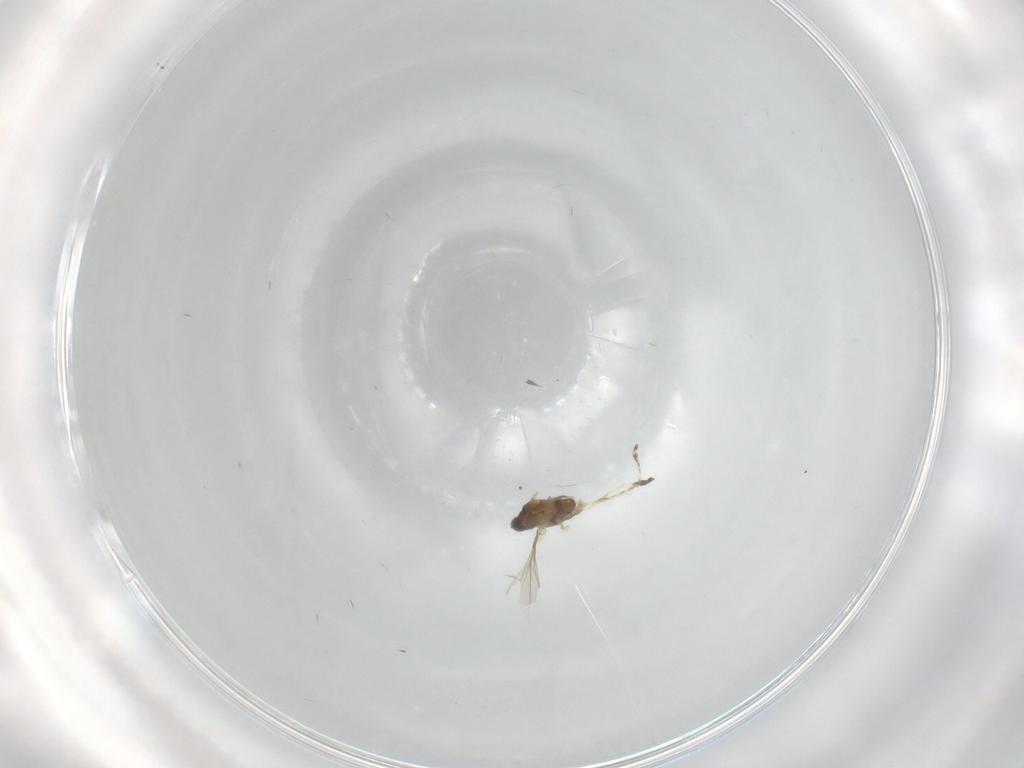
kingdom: Animalia
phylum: Arthropoda
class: Insecta
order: Diptera
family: Cecidomyiidae
